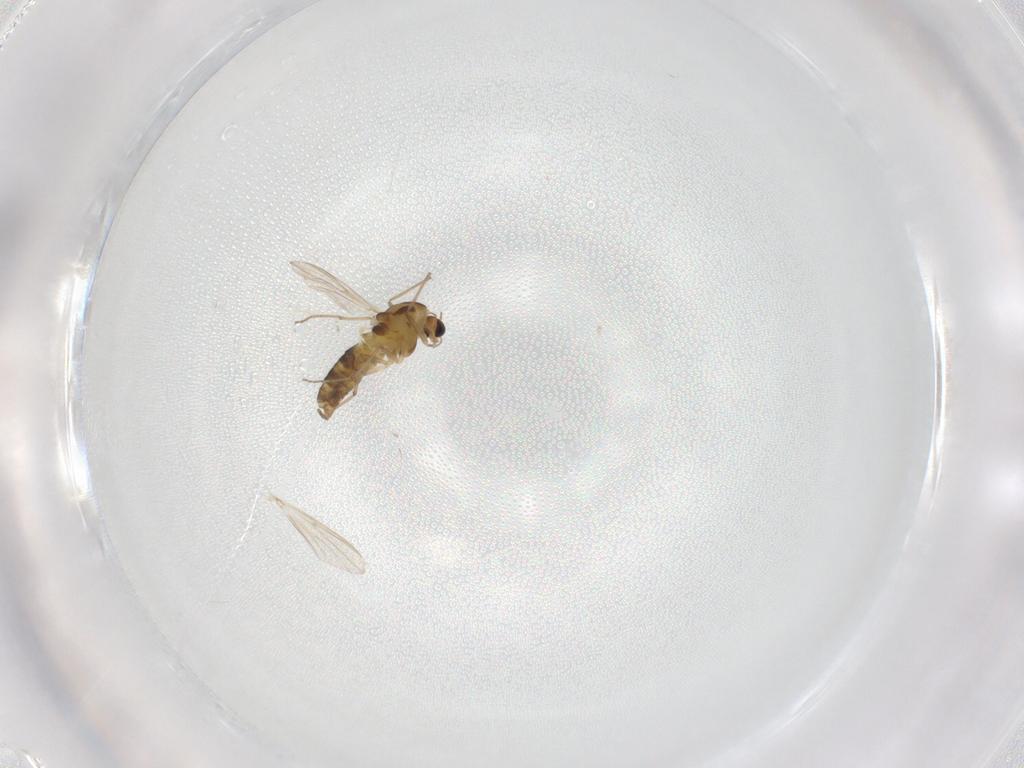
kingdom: Animalia
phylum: Arthropoda
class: Insecta
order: Diptera
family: Chironomidae
